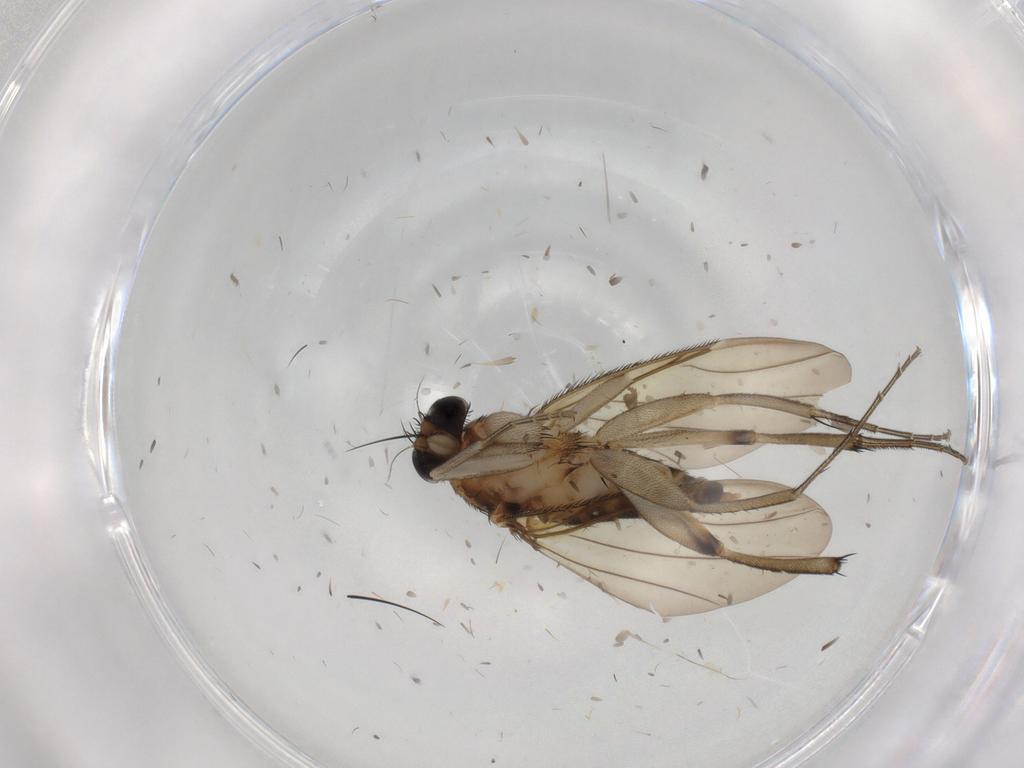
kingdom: Animalia
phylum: Arthropoda
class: Insecta
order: Diptera
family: Phoridae
